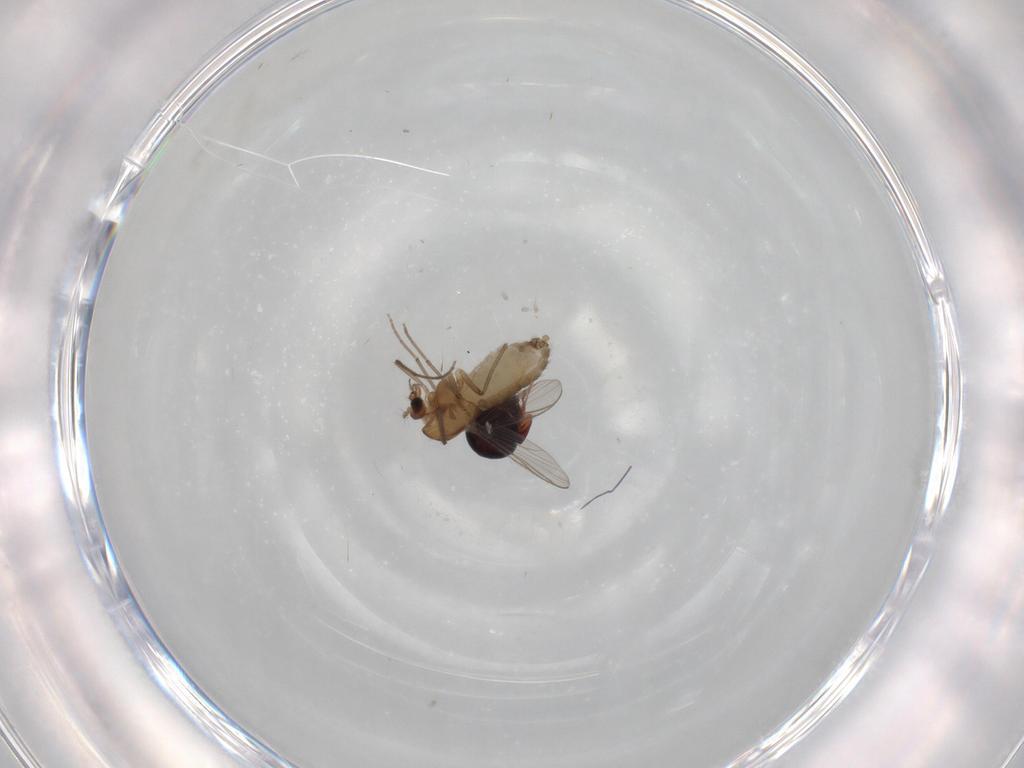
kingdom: Animalia
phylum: Arthropoda
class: Insecta
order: Diptera
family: Chironomidae
